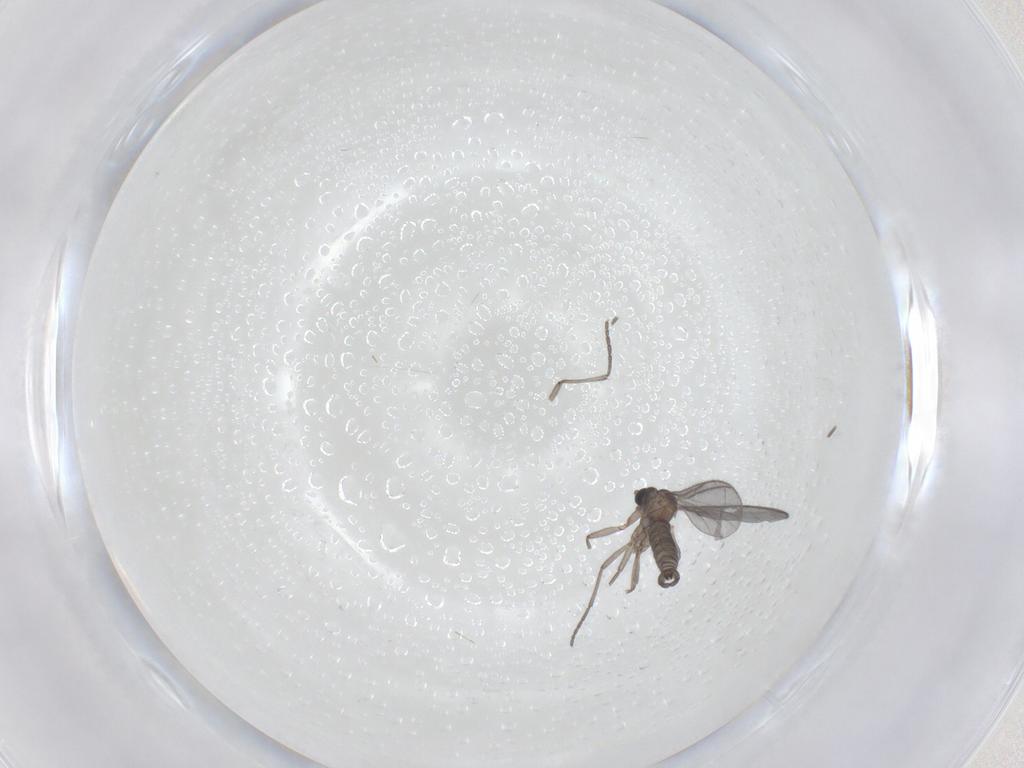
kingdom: Animalia
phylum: Arthropoda
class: Insecta
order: Diptera
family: Sciaridae
